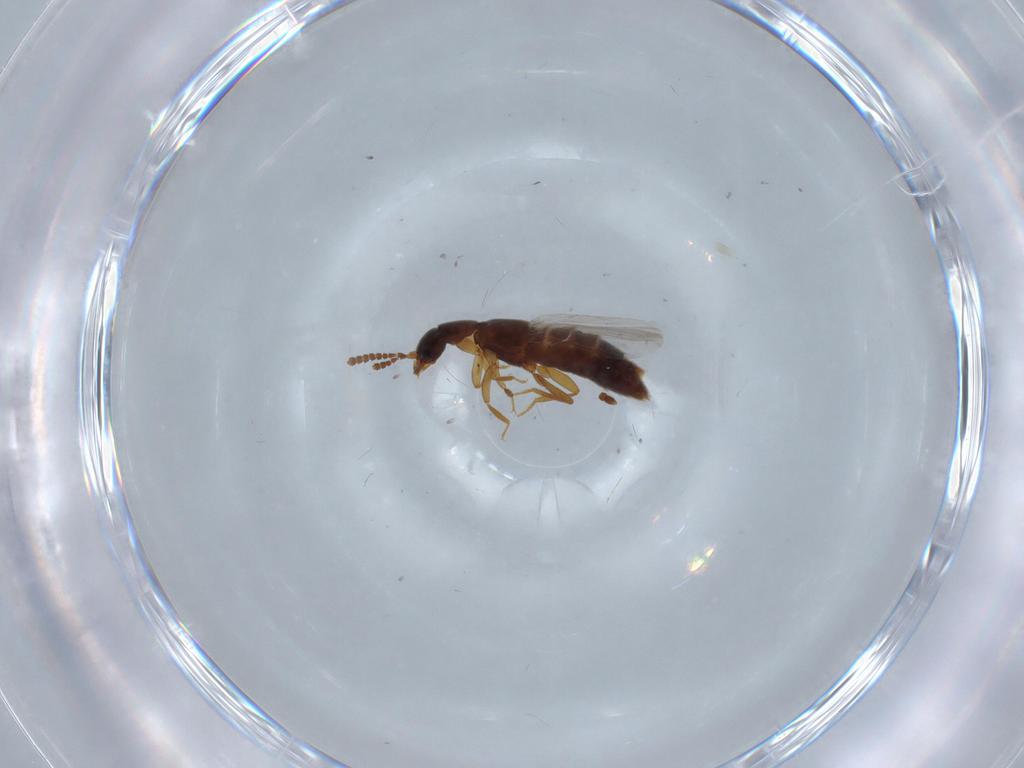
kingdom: Animalia
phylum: Arthropoda
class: Insecta
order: Coleoptera
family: Staphylinidae
